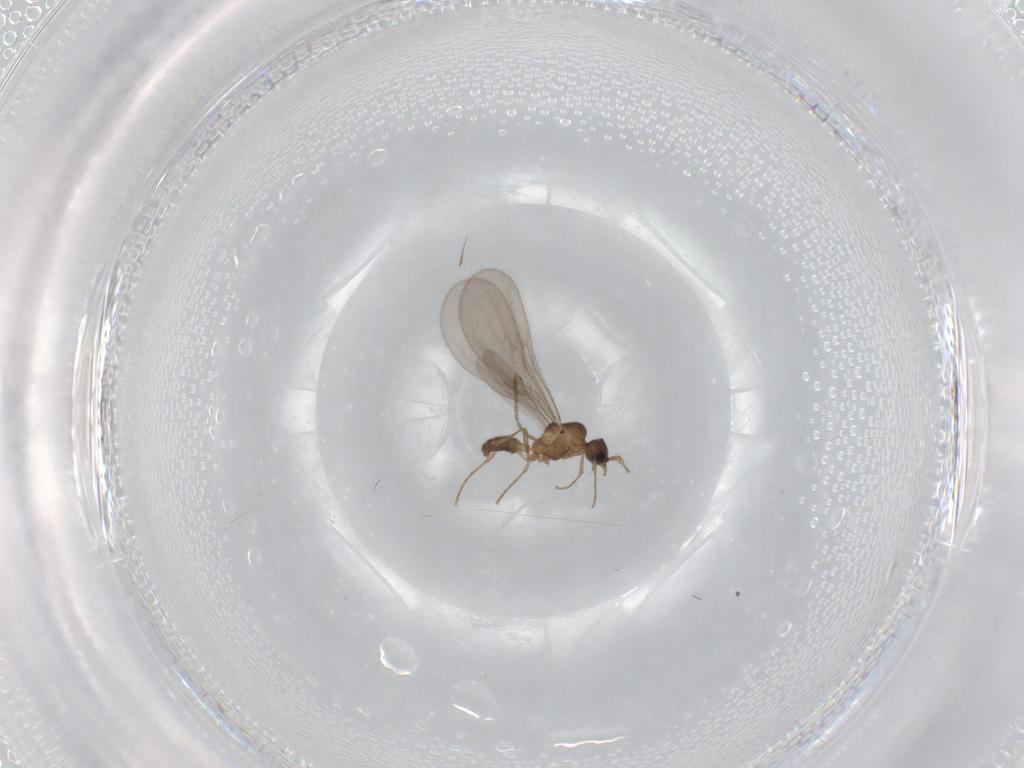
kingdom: Animalia
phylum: Arthropoda
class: Insecta
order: Hymenoptera
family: Formicidae
